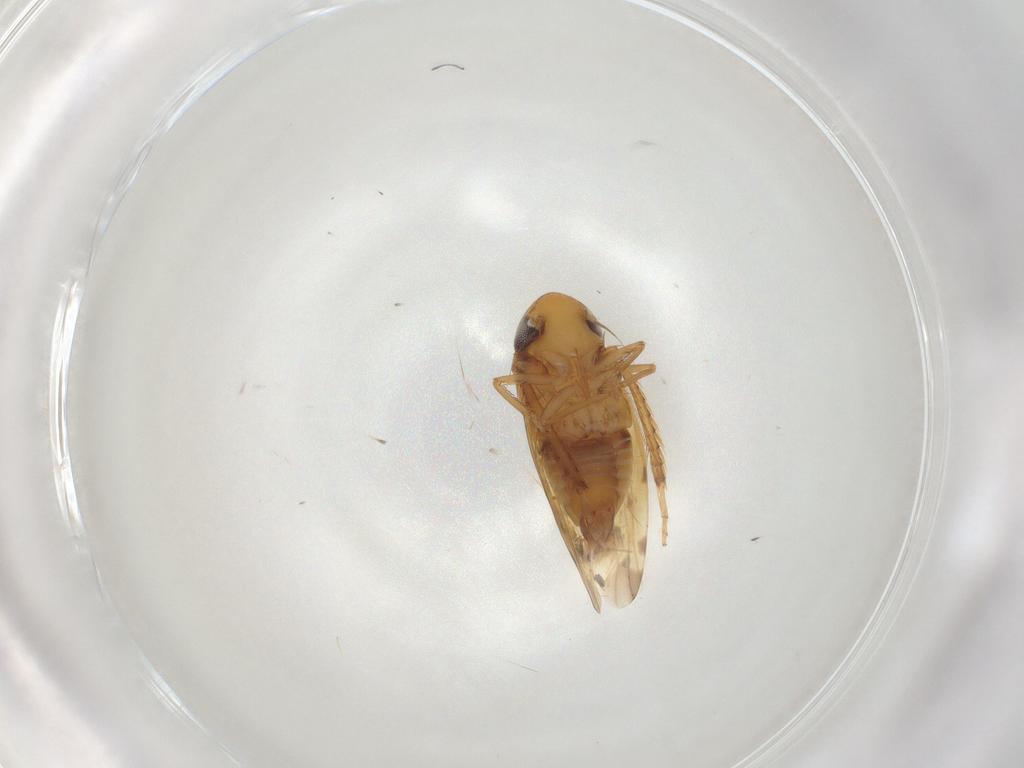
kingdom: Animalia
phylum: Arthropoda
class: Insecta
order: Hemiptera
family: Cicadellidae
